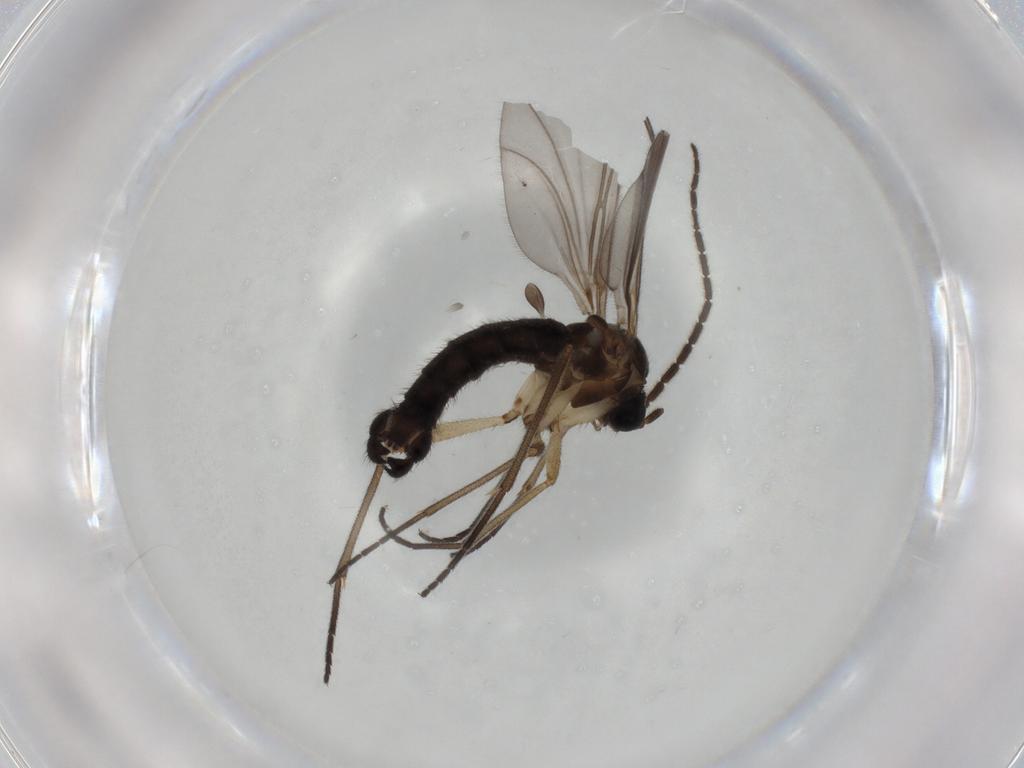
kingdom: Animalia
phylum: Arthropoda
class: Insecta
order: Diptera
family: Sciaridae
